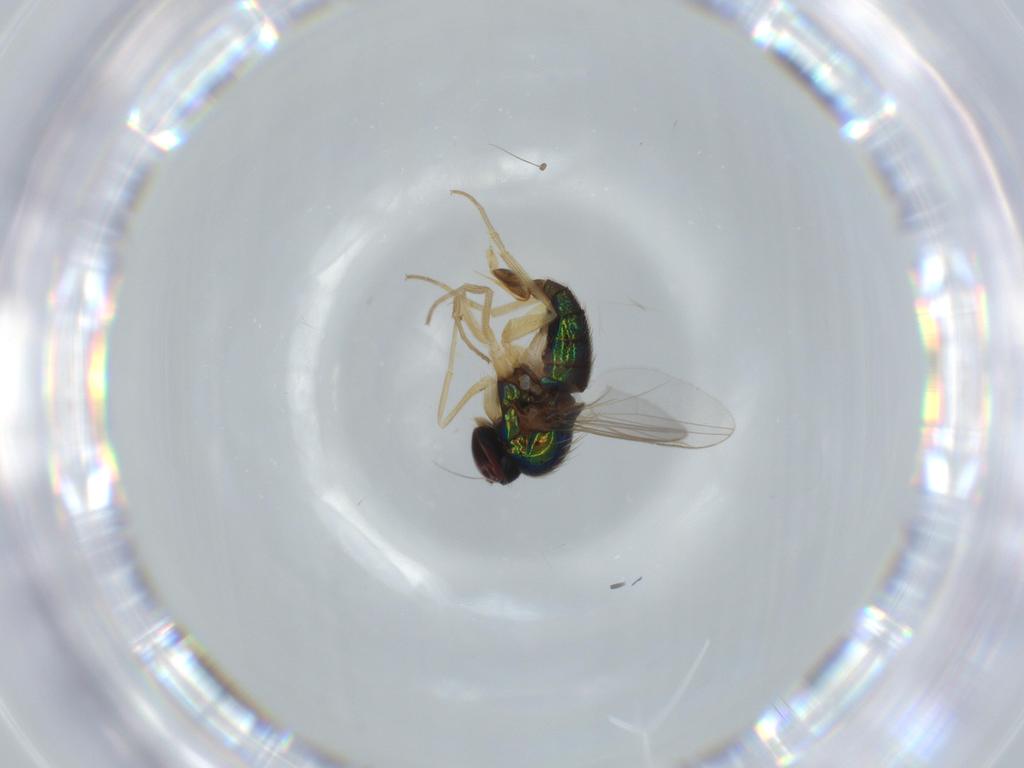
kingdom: Animalia
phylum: Arthropoda
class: Insecta
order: Diptera
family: Dolichopodidae
